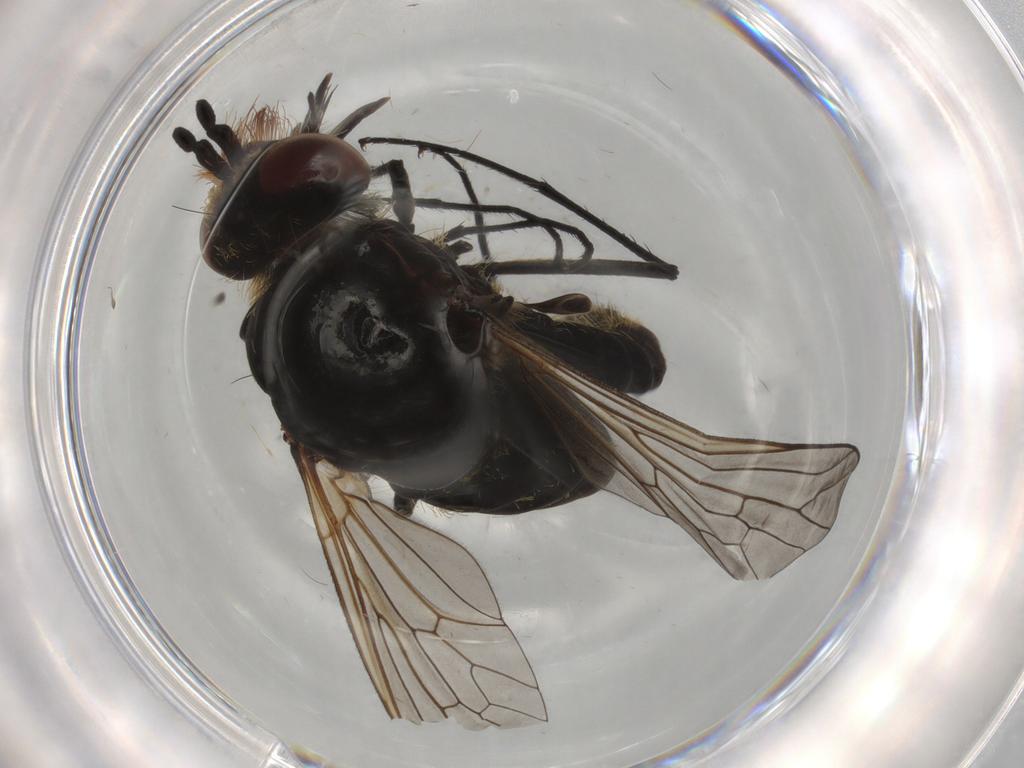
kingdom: Animalia
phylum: Arthropoda
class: Insecta
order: Diptera
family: Bombyliidae
